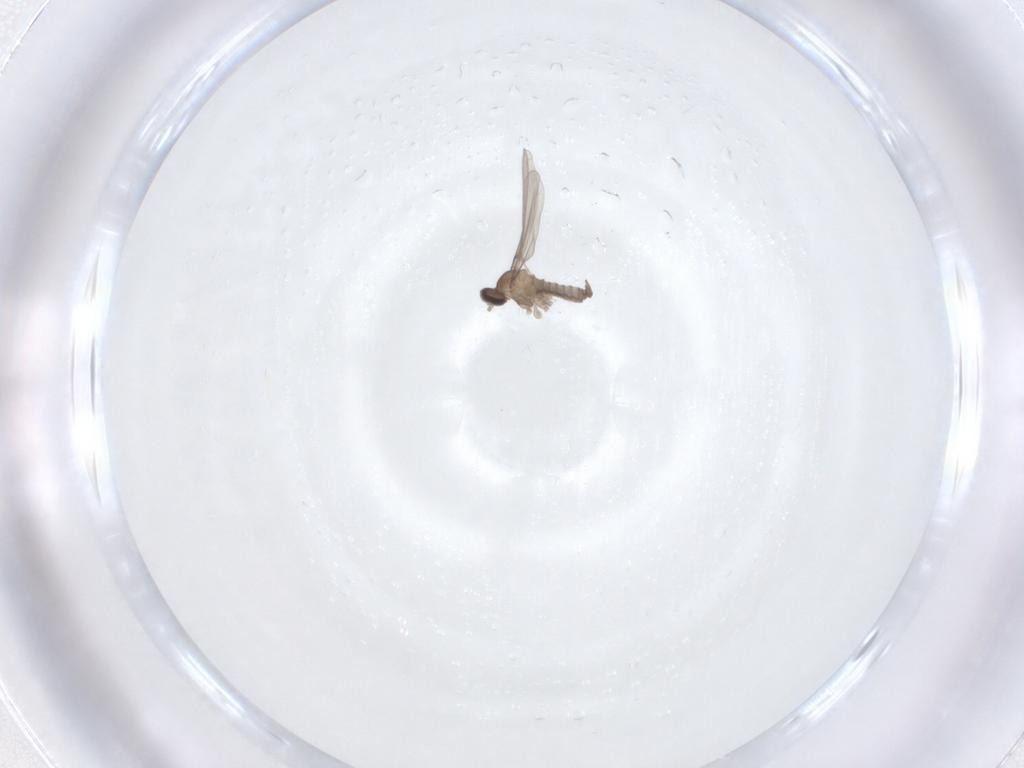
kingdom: Animalia
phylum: Arthropoda
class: Insecta
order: Diptera
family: Cecidomyiidae
